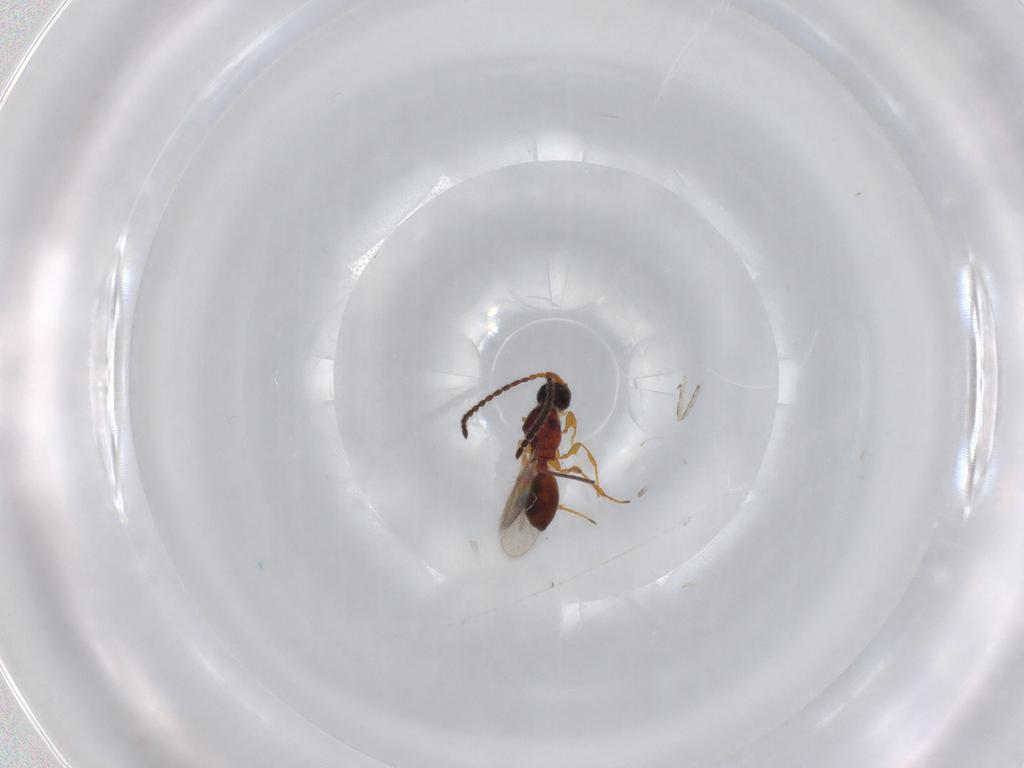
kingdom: Animalia
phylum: Arthropoda
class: Insecta
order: Hymenoptera
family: Diapriidae
